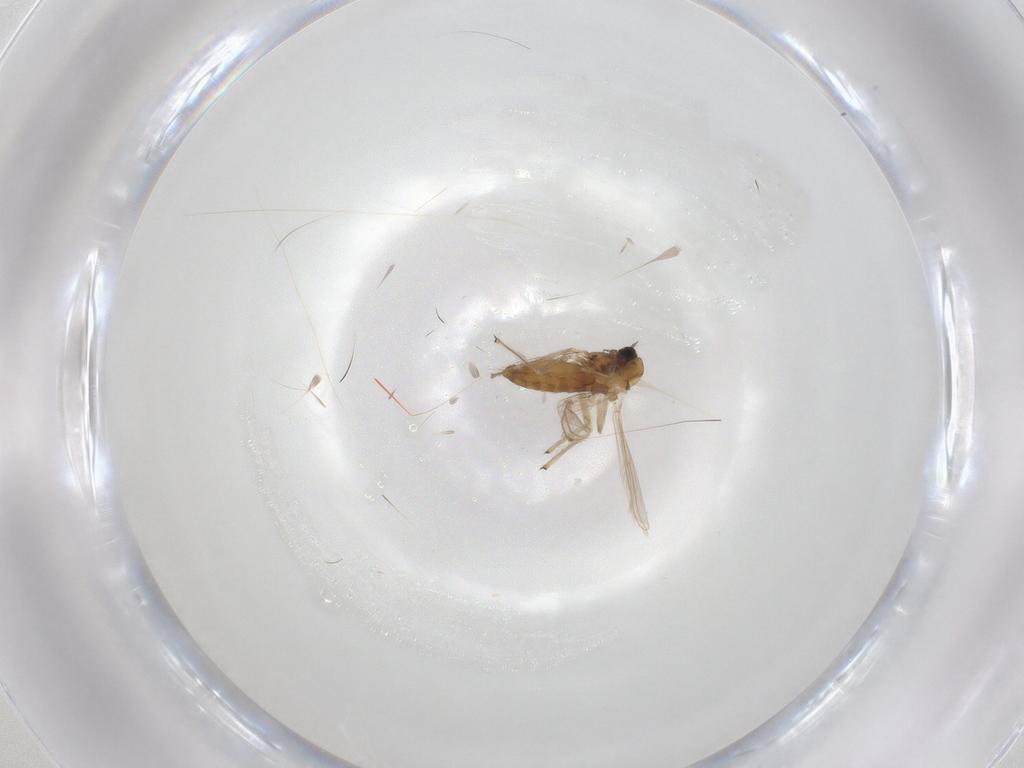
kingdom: Animalia
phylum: Arthropoda
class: Insecta
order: Diptera
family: Chironomidae
